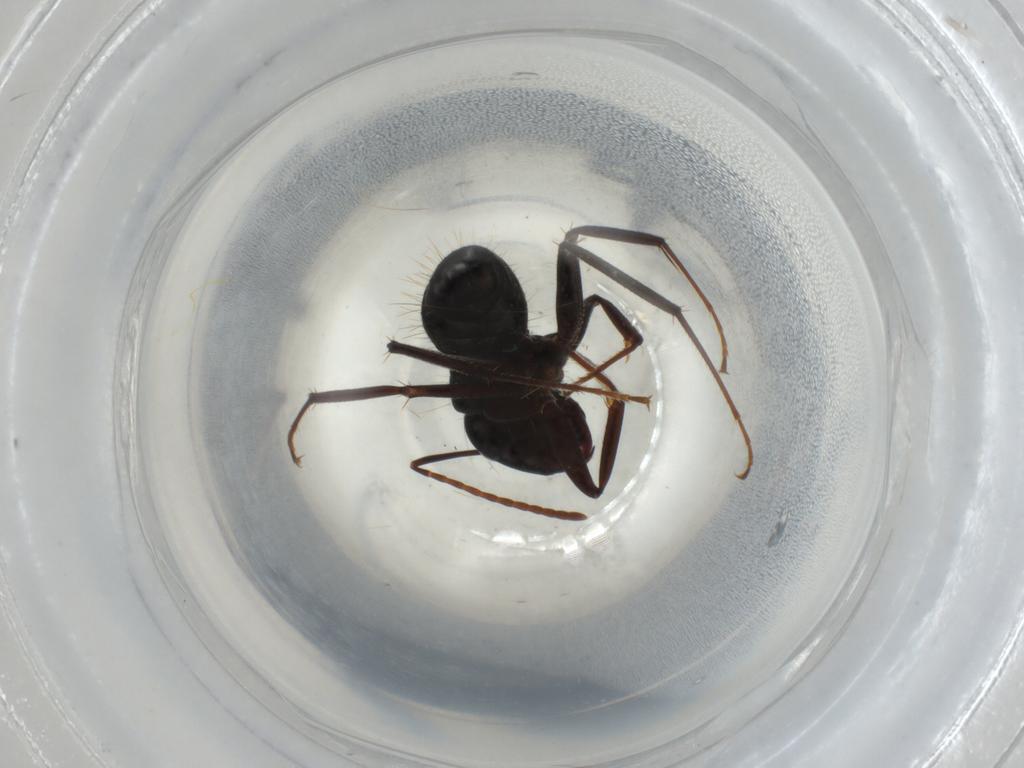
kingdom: Animalia
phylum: Arthropoda
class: Insecta
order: Hymenoptera
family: Formicidae
